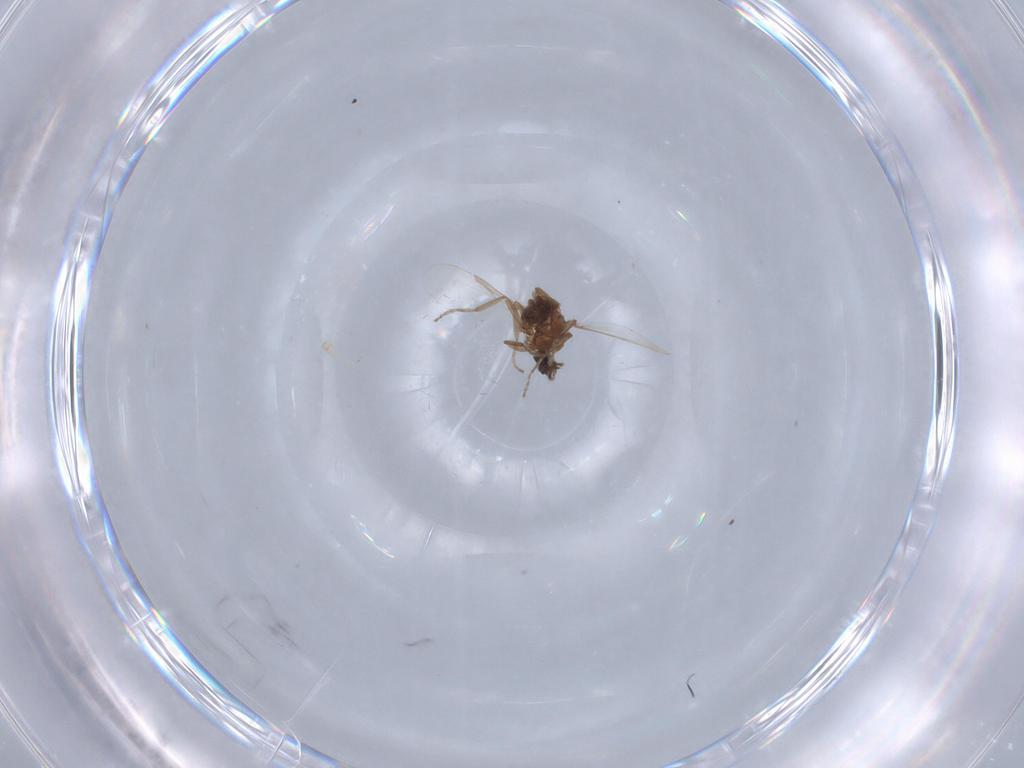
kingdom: Animalia
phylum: Arthropoda
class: Insecta
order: Diptera
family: Ceratopogonidae
